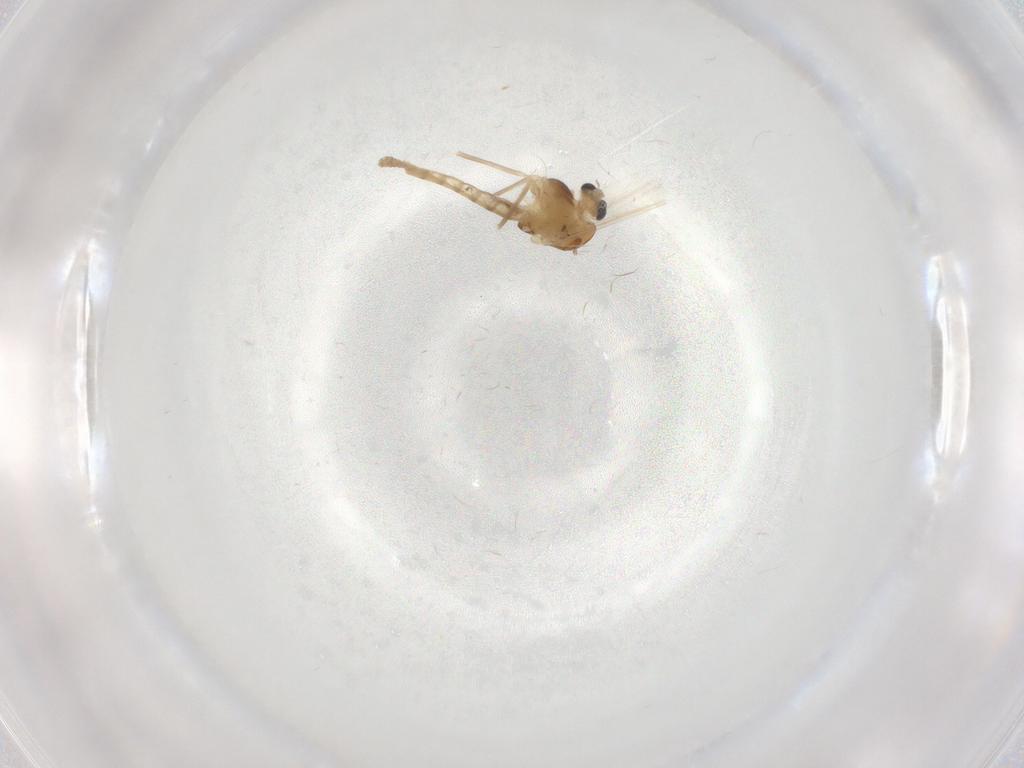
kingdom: Animalia
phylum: Arthropoda
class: Insecta
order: Diptera
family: Chironomidae
